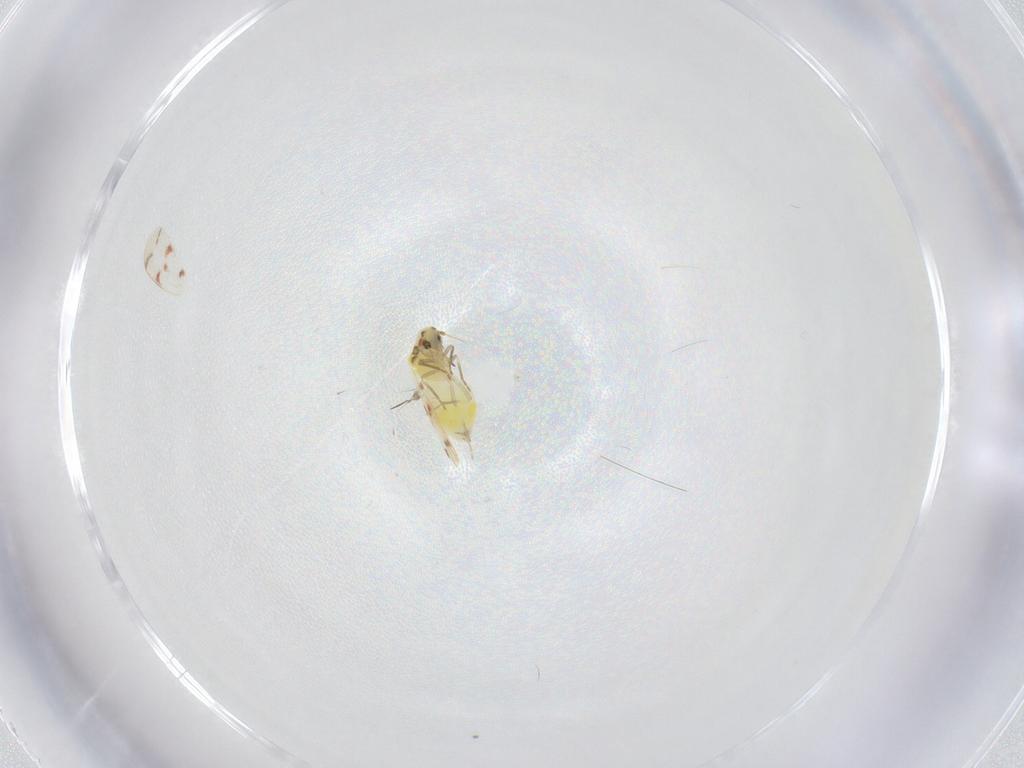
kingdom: Animalia
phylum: Arthropoda
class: Insecta
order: Hemiptera
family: Aleyrodidae
